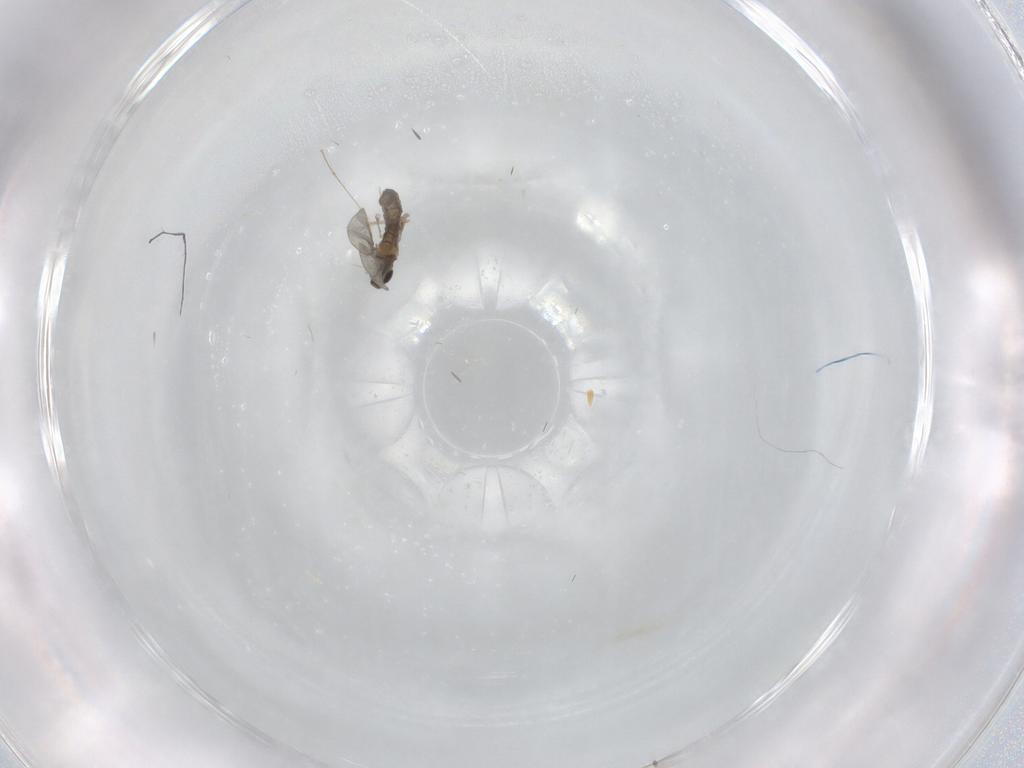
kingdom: Animalia
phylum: Arthropoda
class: Insecta
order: Diptera
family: Cecidomyiidae
